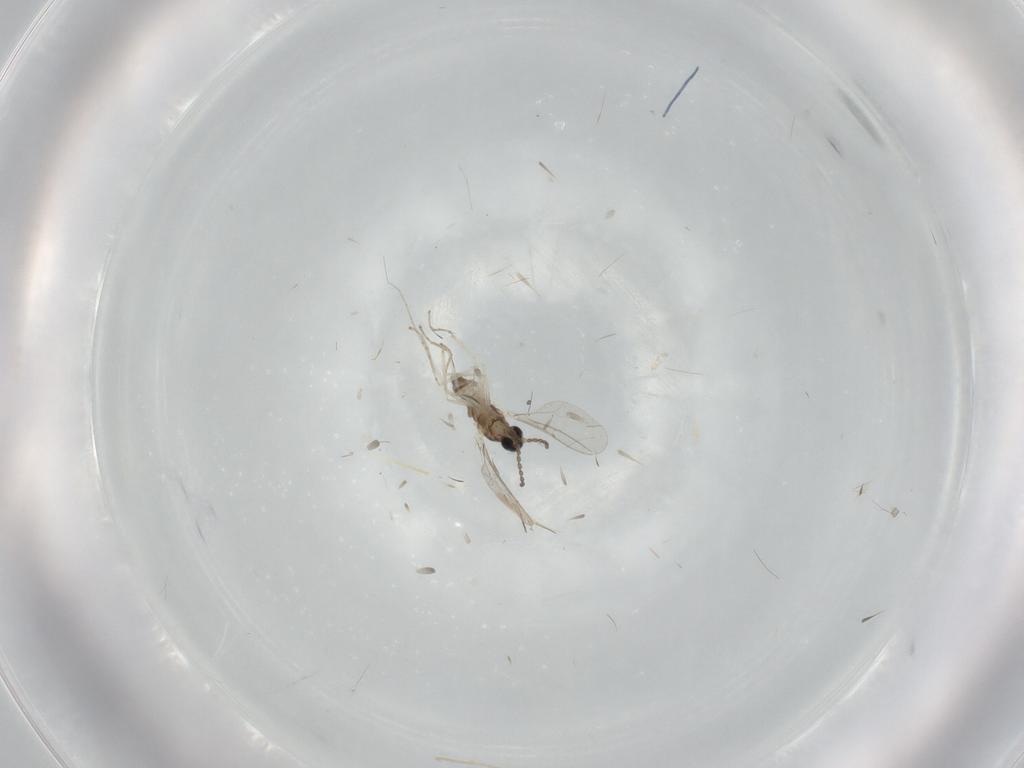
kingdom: Animalia
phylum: Arthropoda
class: Insecta
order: Diptera
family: Cecidomyiidae
